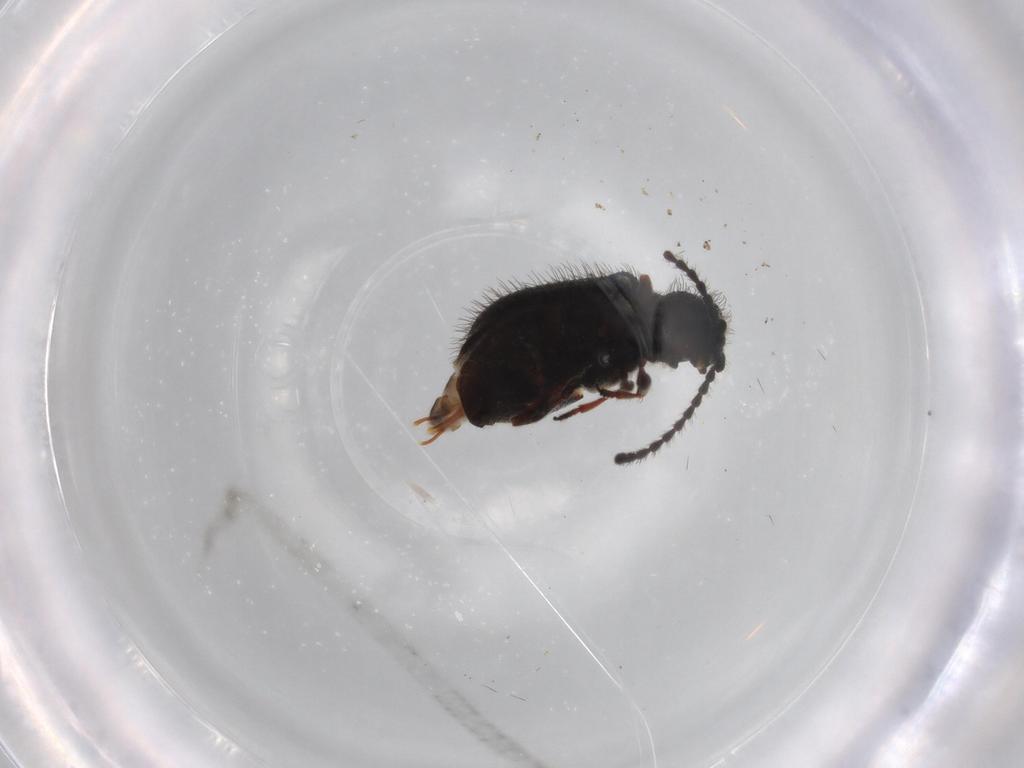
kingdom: Animalia
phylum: Arthropoda
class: Insecta
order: Coleoptera
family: Ptinidae
